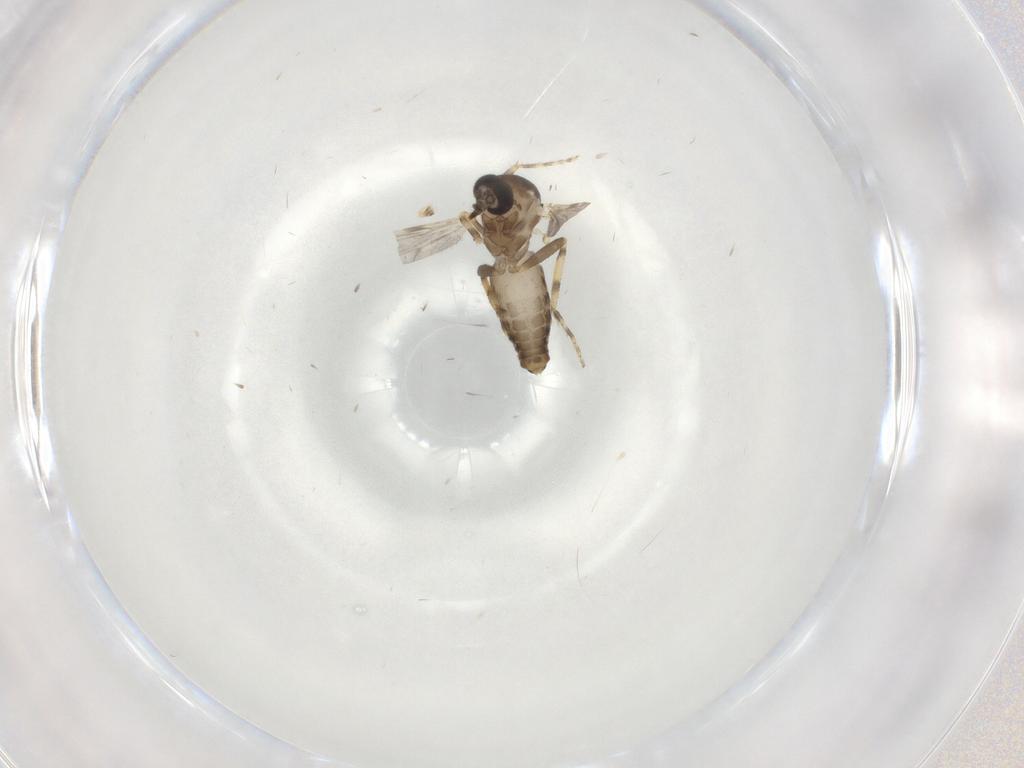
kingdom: Animalia
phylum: Arthropoda
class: Insecta
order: Diptera
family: Ceratopogonidae
